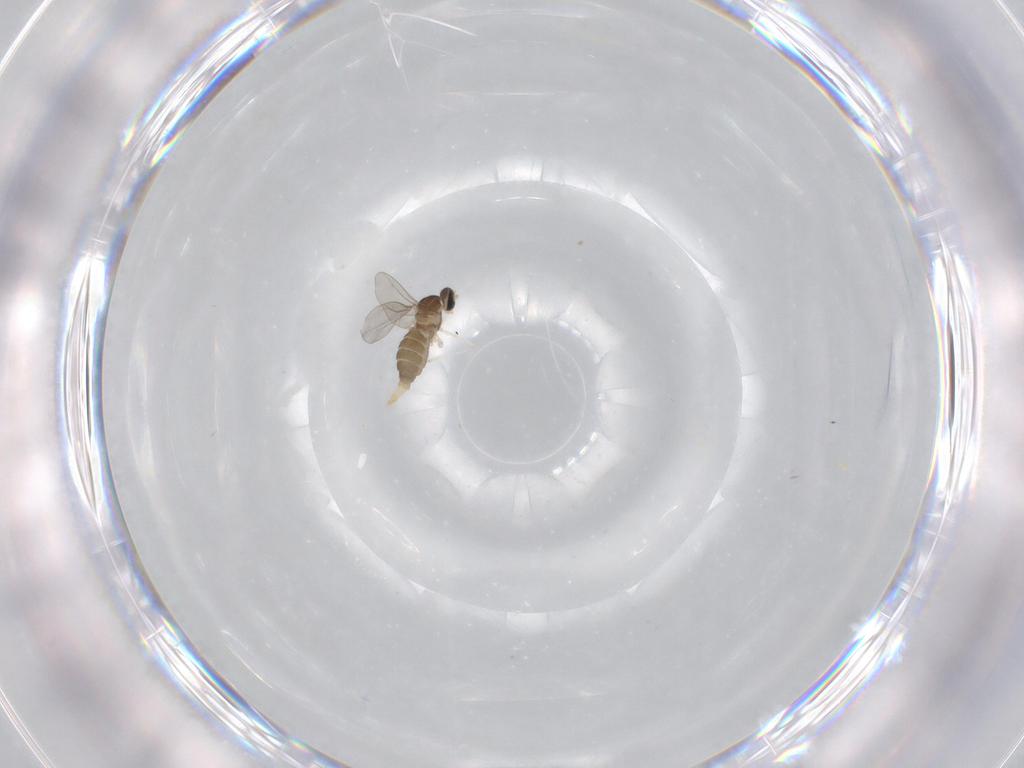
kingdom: Animalia
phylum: Arthropoda
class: Insecta
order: Diptera
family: Cecidomyiidae
